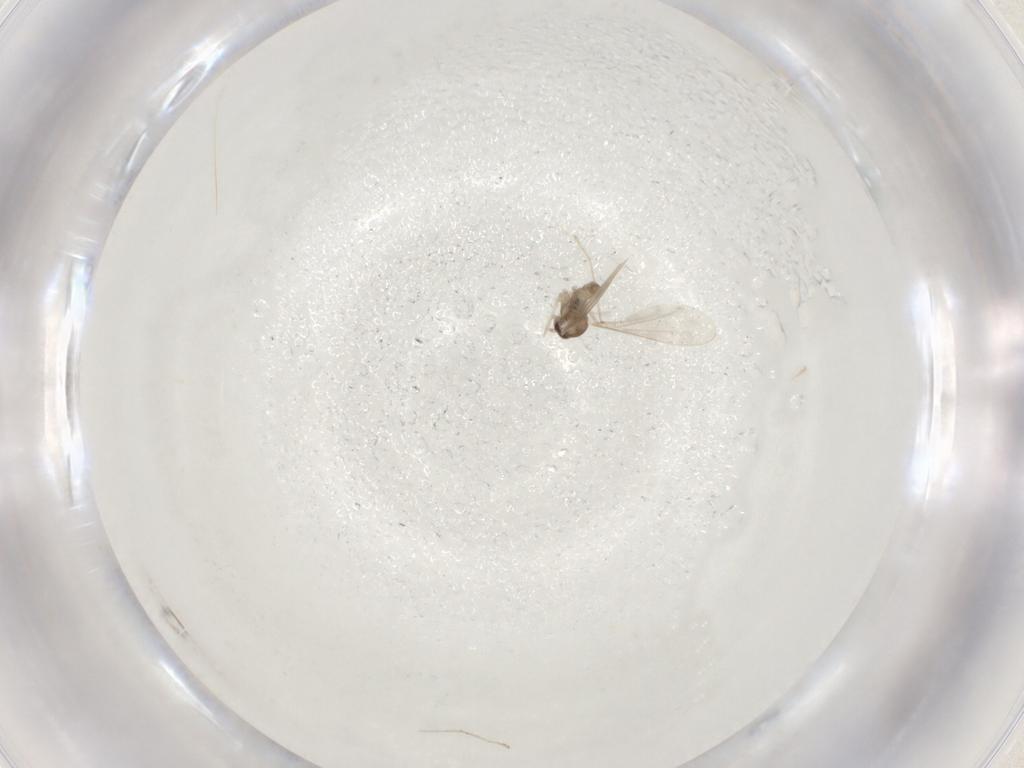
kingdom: Animalia
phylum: Arthropoda
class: Insecta
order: Diptera
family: Cecidomyiidae
